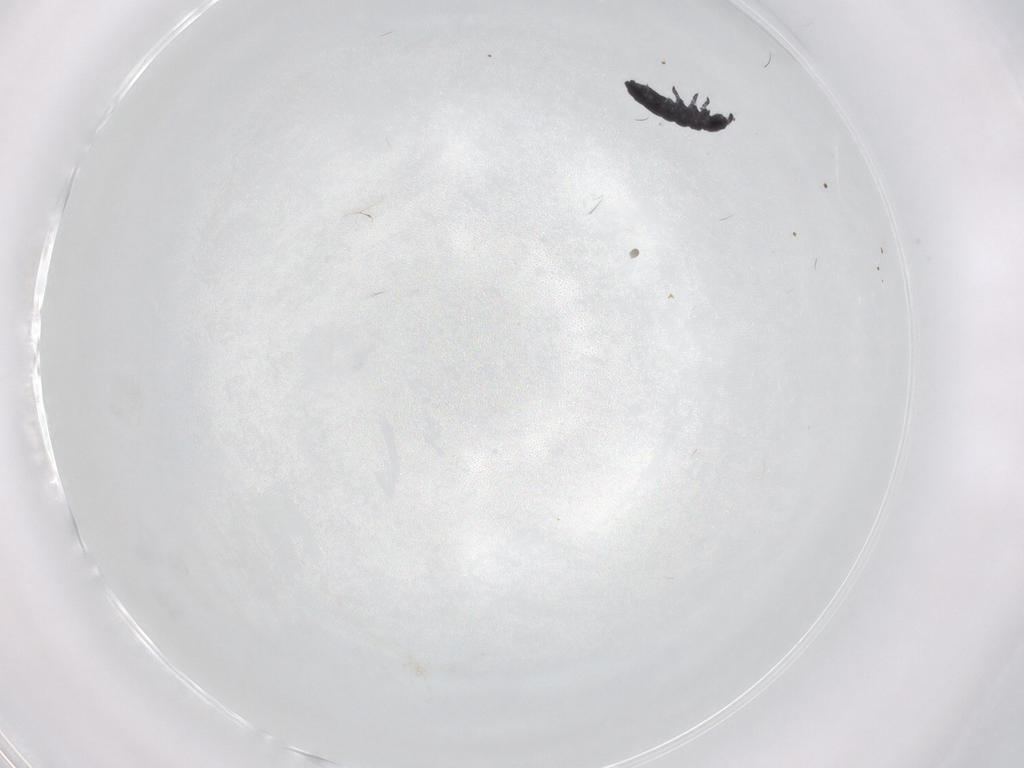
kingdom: Animalia
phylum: Arthropoda
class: Collembola
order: Poduromorpha
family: Hypogastruridae
